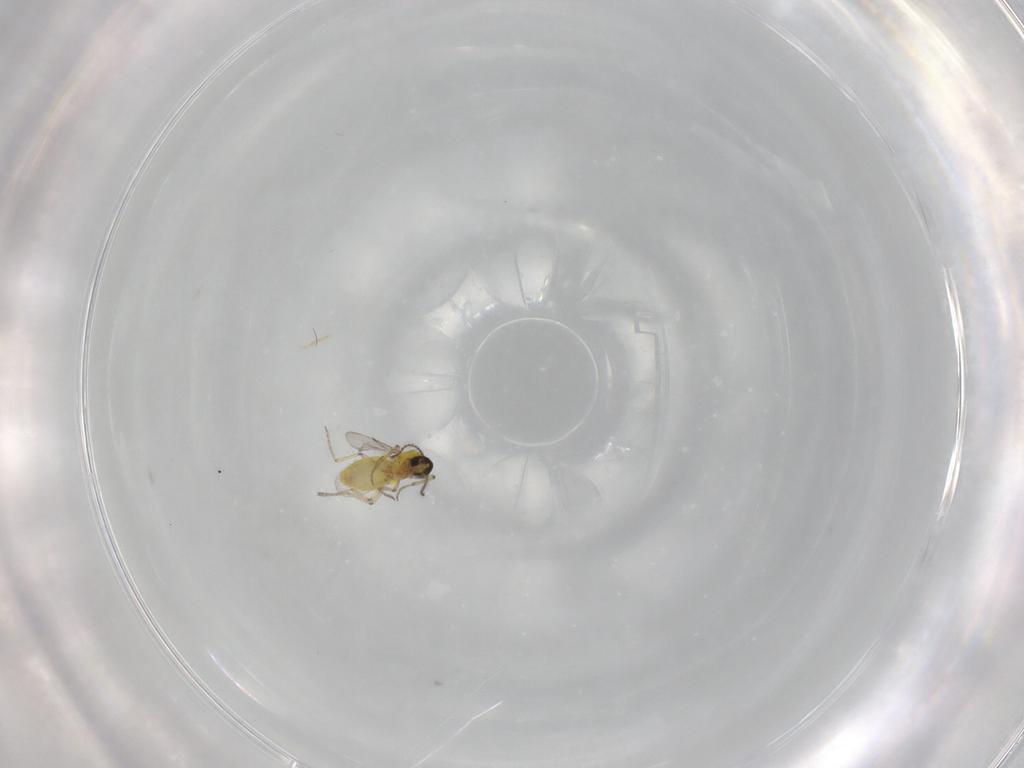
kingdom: Animalia
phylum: Arthropoda
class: Insecta
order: Diptera
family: Ceratopogonidae
